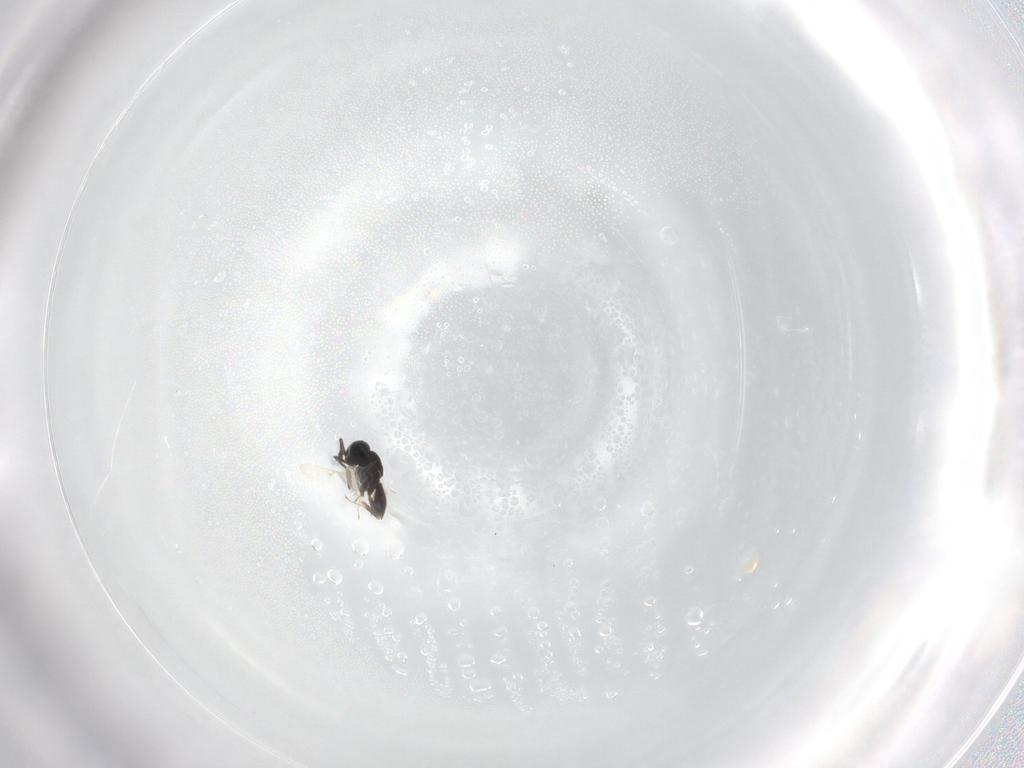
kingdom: Animalia
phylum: Arthropoda
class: Insecta
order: Hymenoptera
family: Scelionidae
